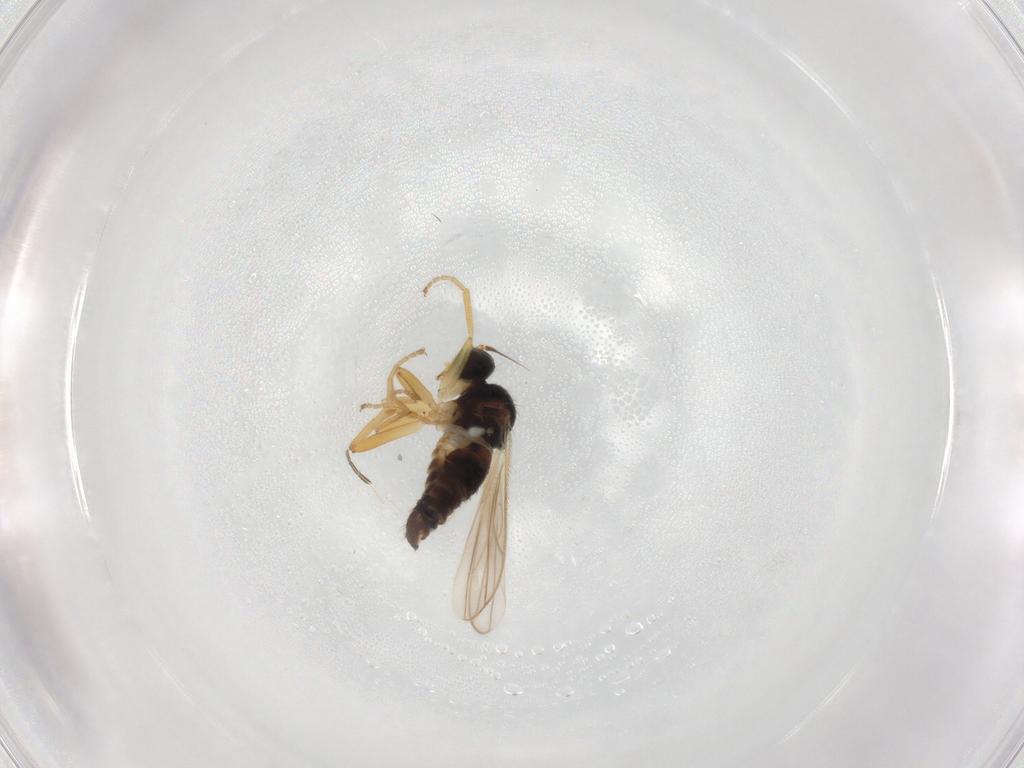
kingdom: Animalia
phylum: Arthropoda
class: Insecta
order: Diptera
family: Hybotidae
